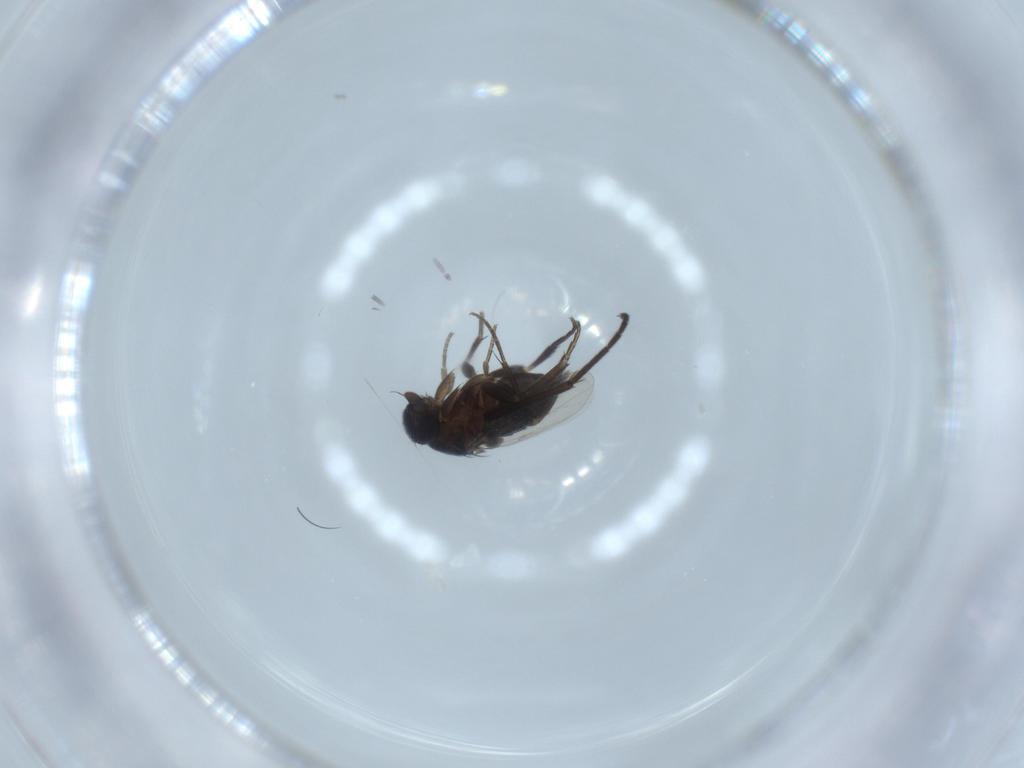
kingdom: Animalia
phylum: Arthropoda
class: Insecta
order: Diptera
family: Phoridae
